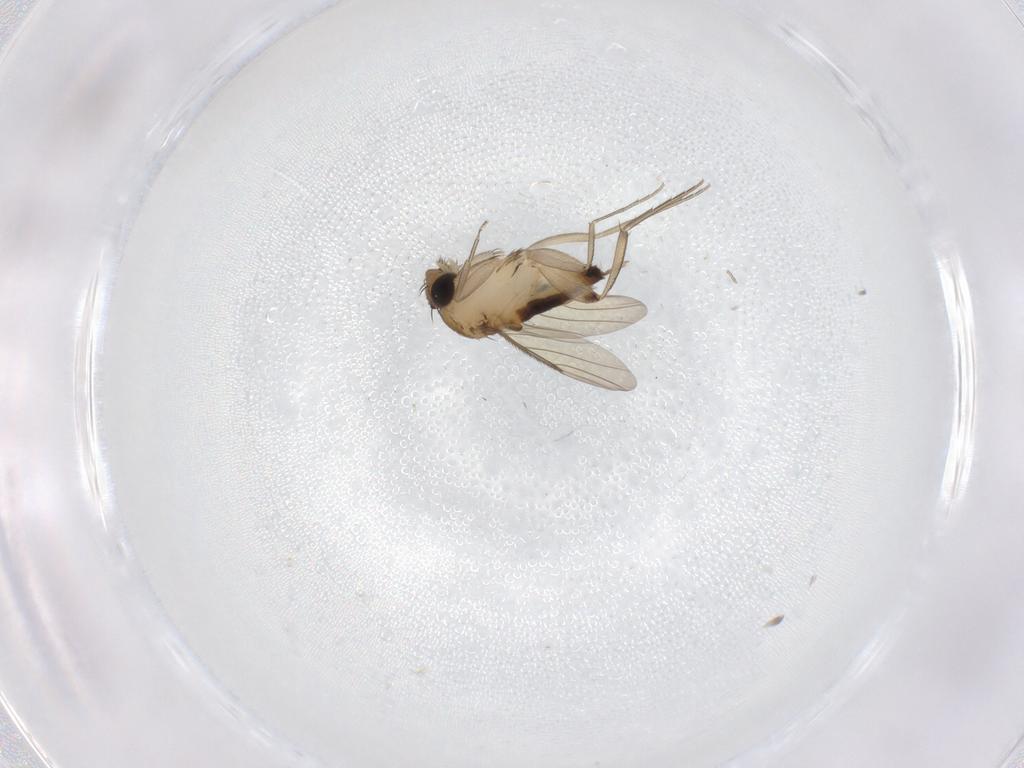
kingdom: Animalia
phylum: Arthropoda
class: Insecta
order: Diptera
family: Phoridae
